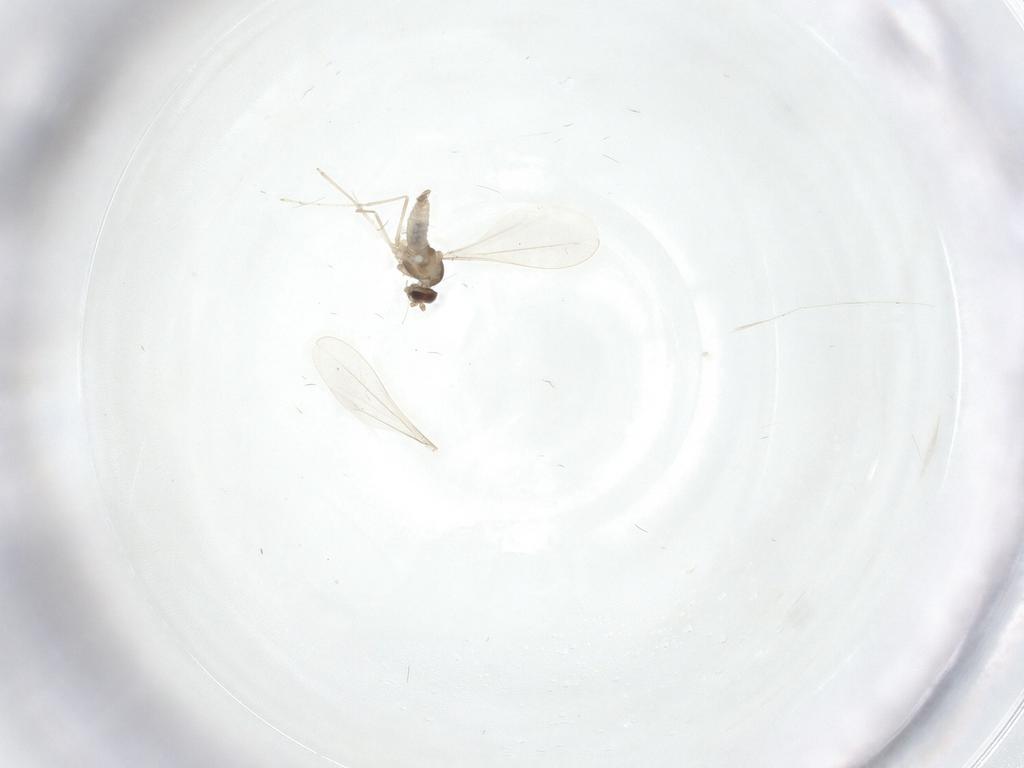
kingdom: Animalia
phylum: Arthropoda
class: Insecta
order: Diptera
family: Cecidomyiidae
